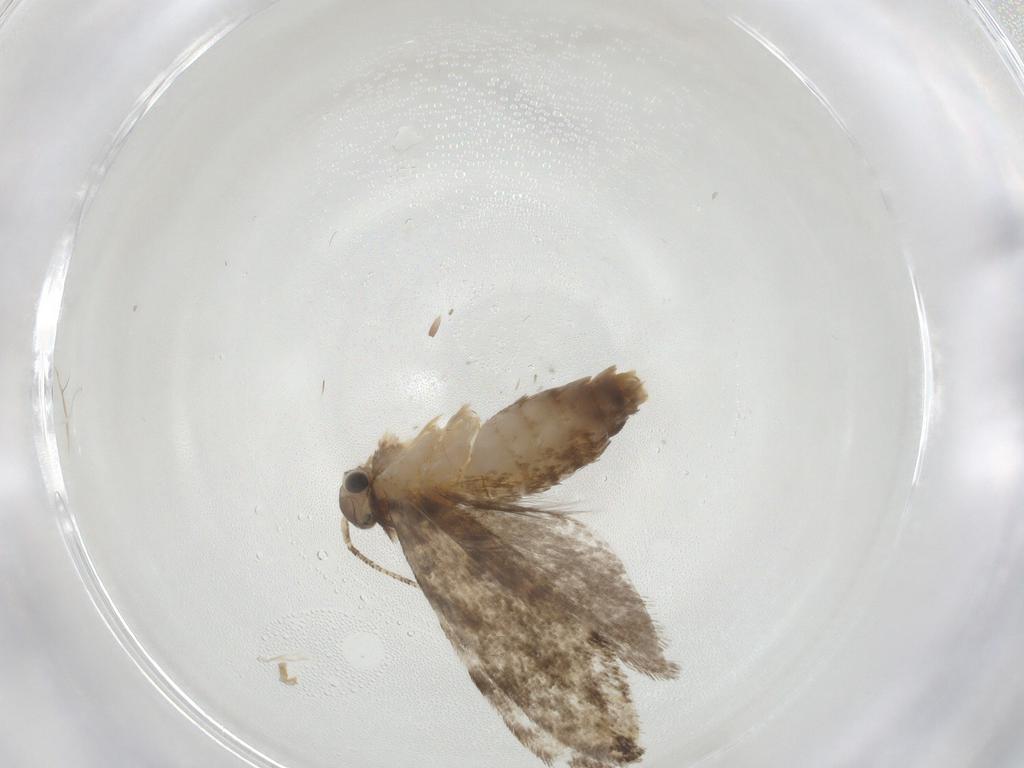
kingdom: Animalia
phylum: Arthropoda
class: Insecta
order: Lepidoptera
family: Tineidae
